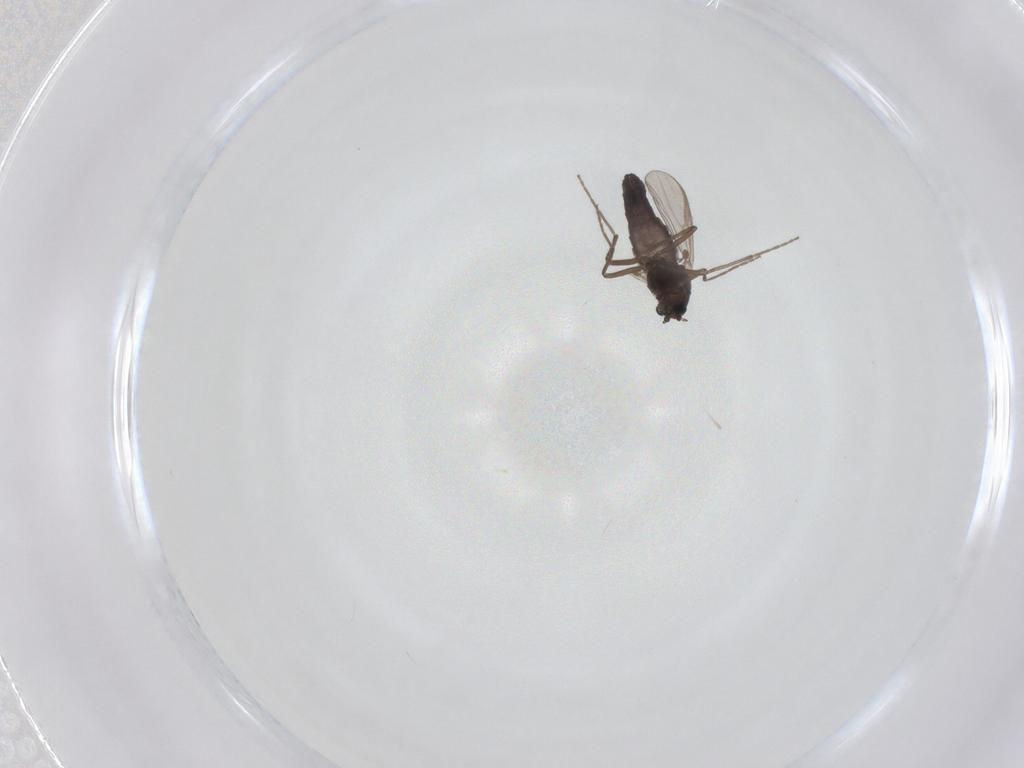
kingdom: Animalia
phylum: Arthropoda
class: Insecta
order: Diptera
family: Chironomidae
